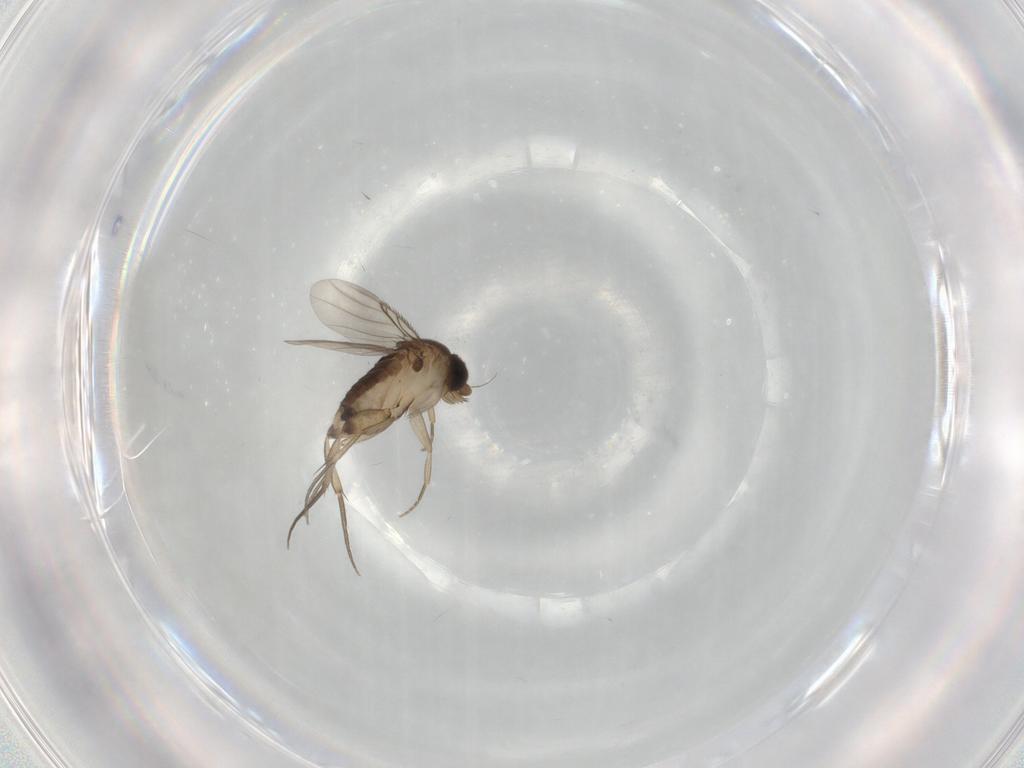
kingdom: Animalia
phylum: Arthropoda
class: Insecta
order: Diptera
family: Phoridae
